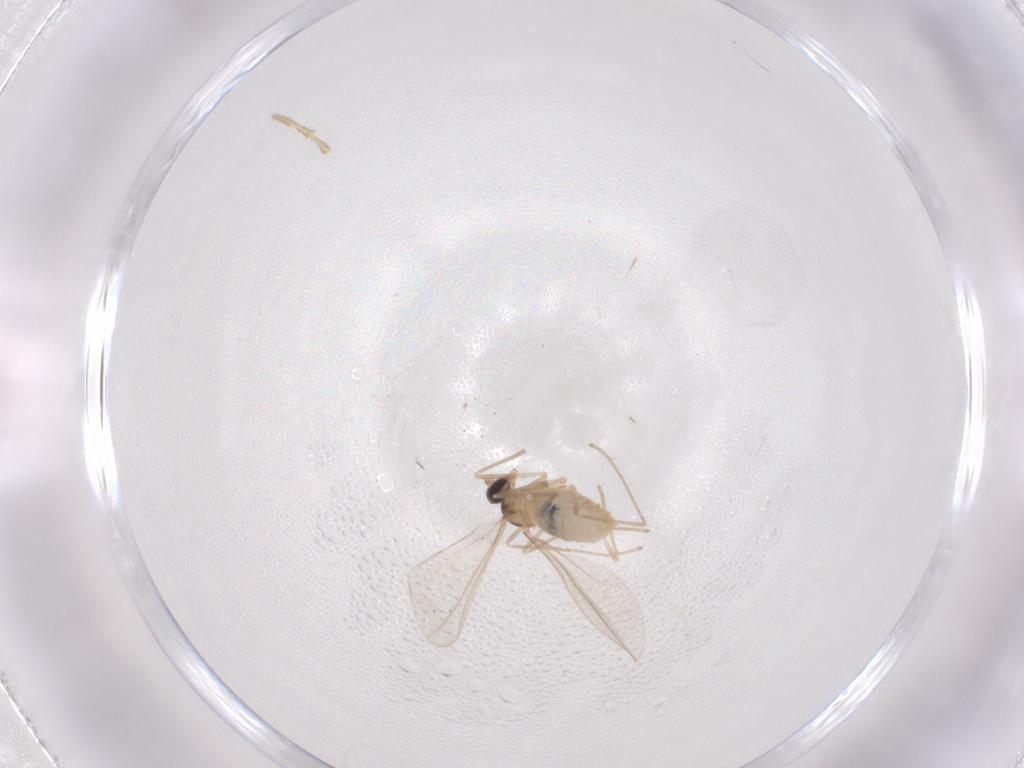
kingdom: Animalia
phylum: Arthropoda
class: Insecta
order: Diptera
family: Cecidomyiidae
